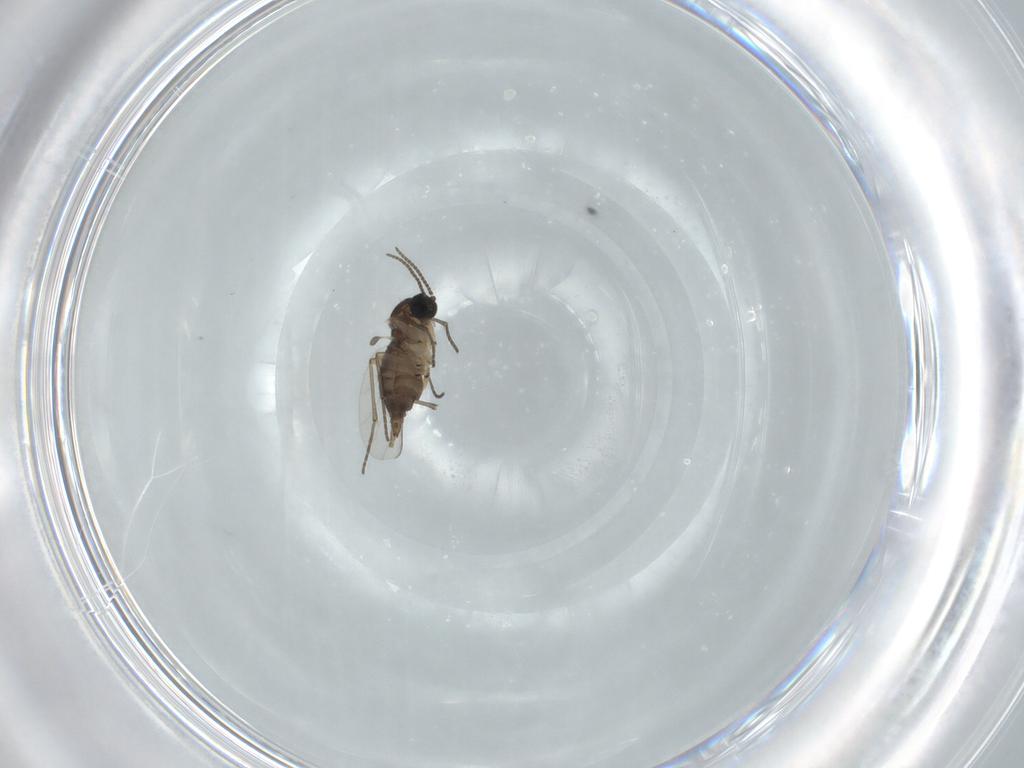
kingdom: Animalia
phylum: Arthropoda
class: Insecta
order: Diptera
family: Sciaridae
